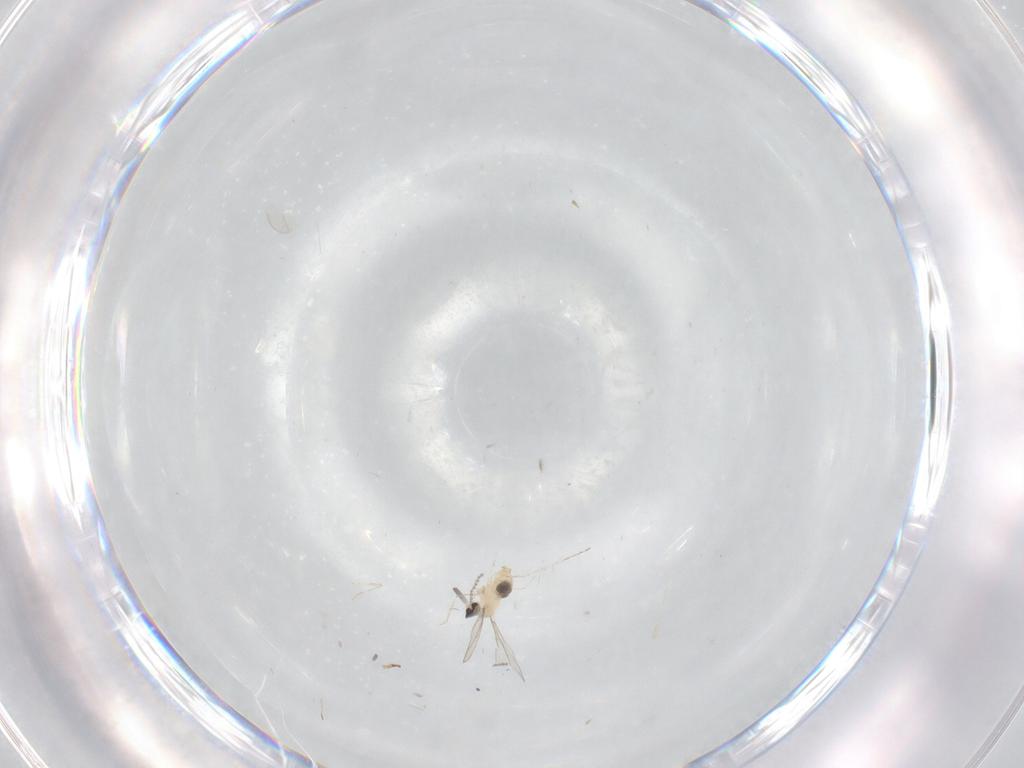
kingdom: Animalia
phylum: Arthropoda
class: Insecta
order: Diptera
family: Cecidomyiidae
